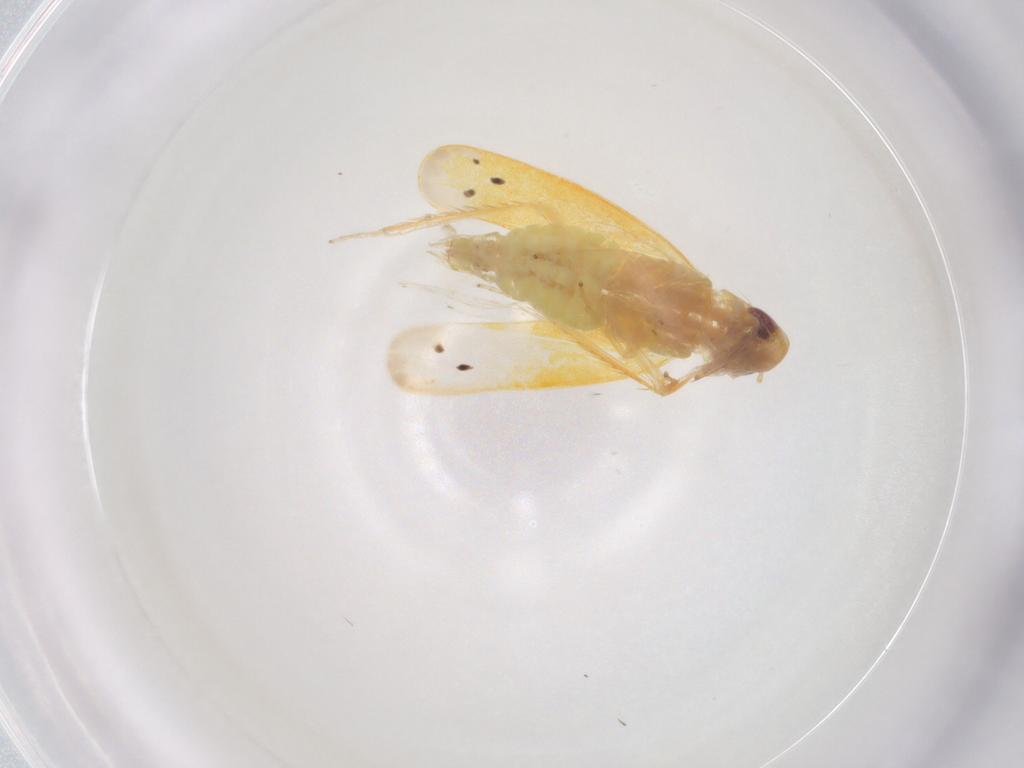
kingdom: Animalia
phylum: Arthropoda
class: Insecta
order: Hemiptera
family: Cicadellidae
